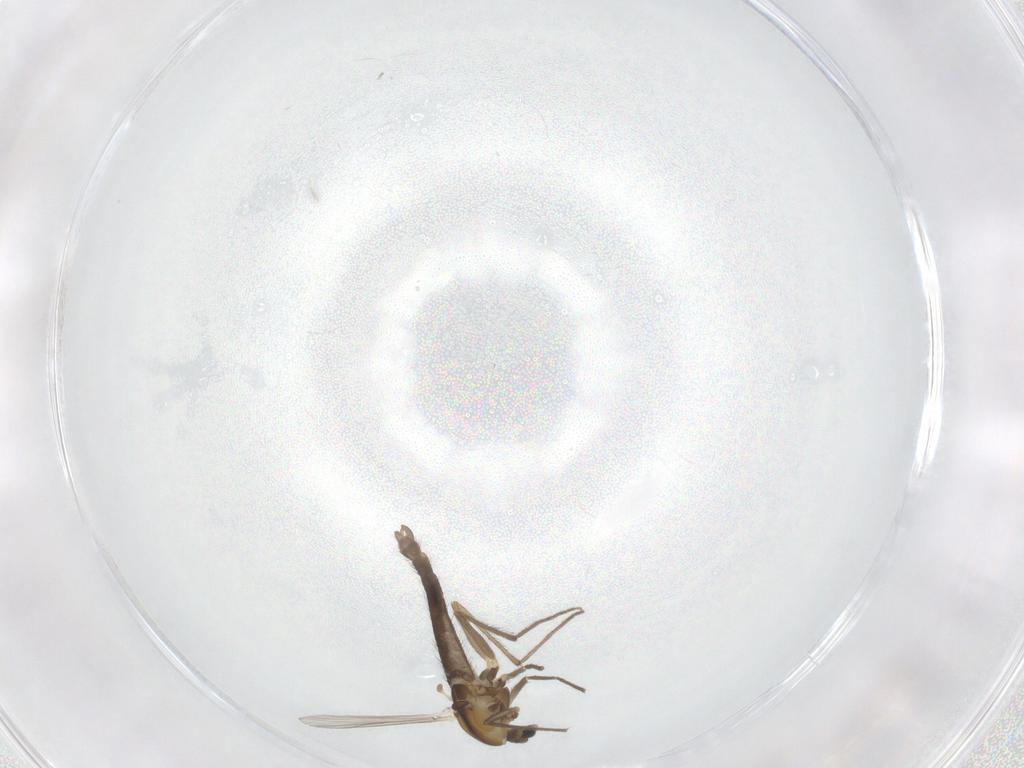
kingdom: Animalia
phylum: Arthropoda
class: Insecta
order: Diptera
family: Chironomidae
